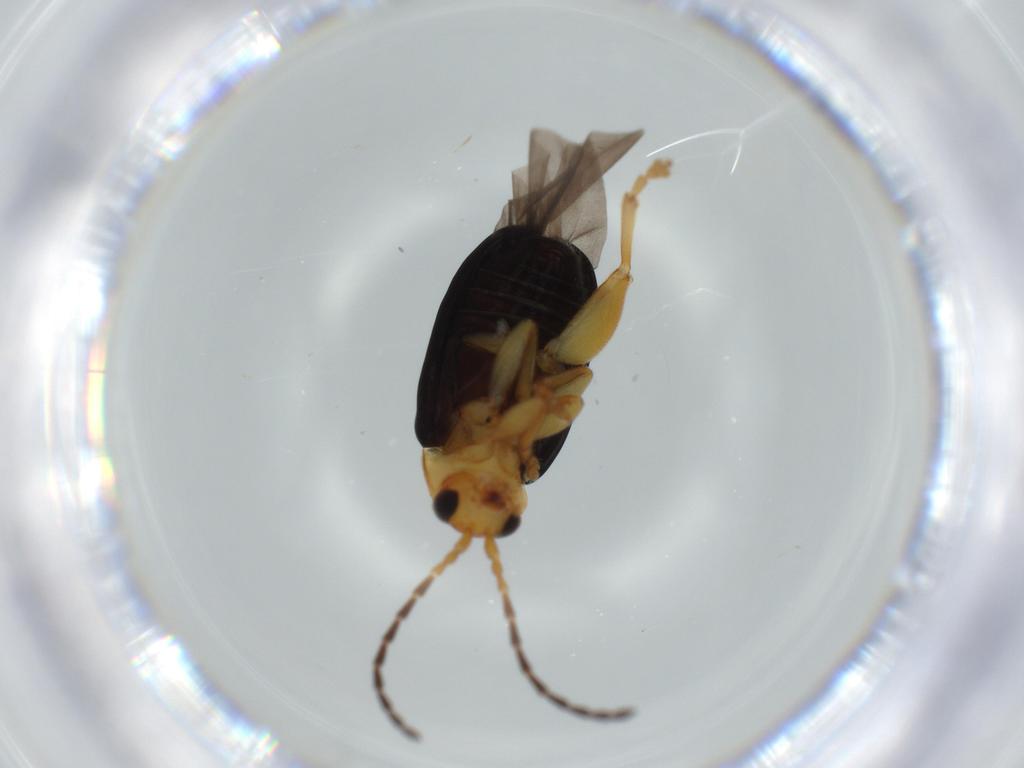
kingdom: Animalia
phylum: Arthropoda
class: Insecta
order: Coleoptera
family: Chrysomelidae
